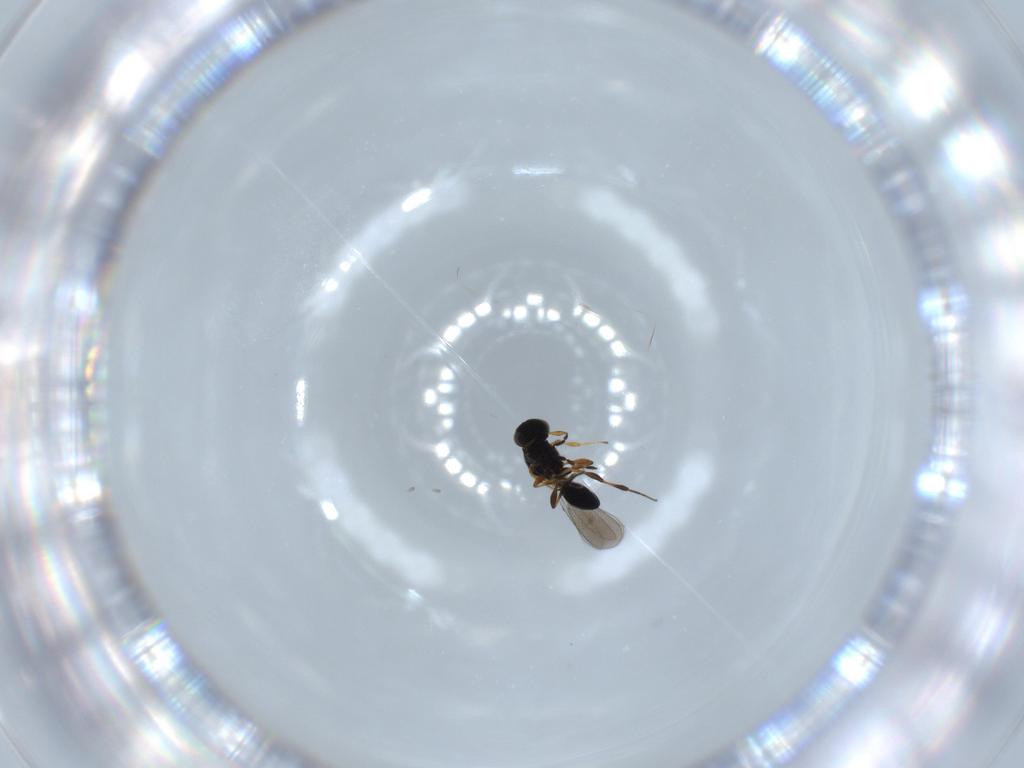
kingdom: Animalia
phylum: Arthropoda
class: Insecta
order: Hymenoptera
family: Platygastridae
